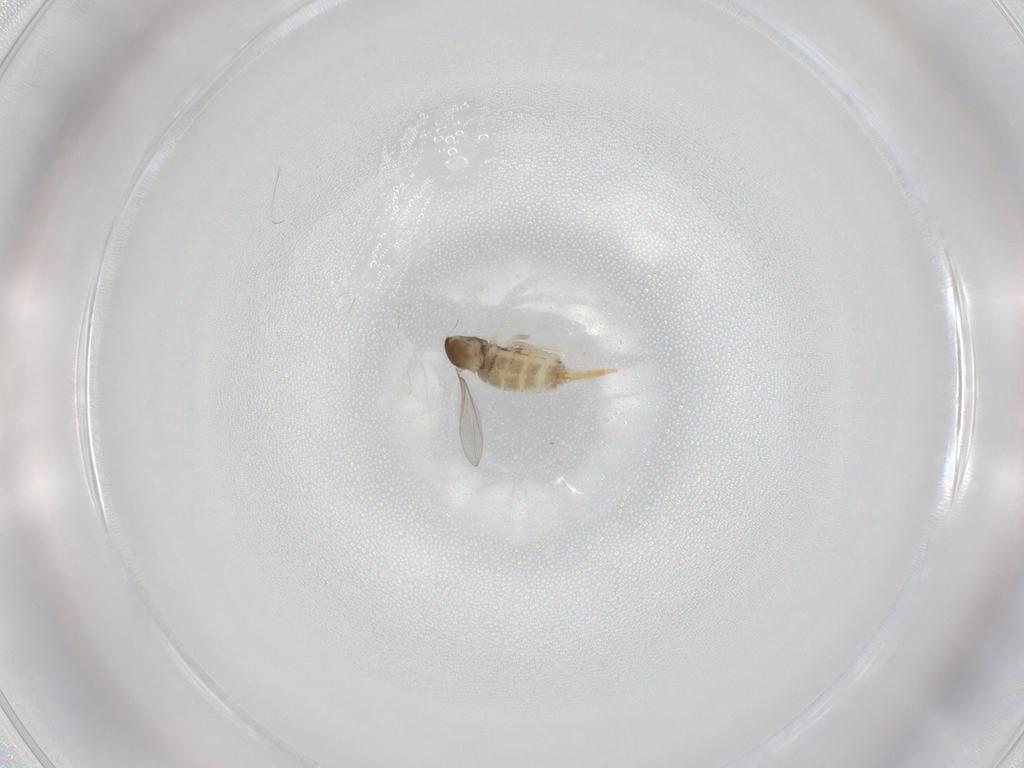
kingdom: Animalia
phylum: Arthropoda
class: Insecta
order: Diptera
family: Cecidomyiidae
